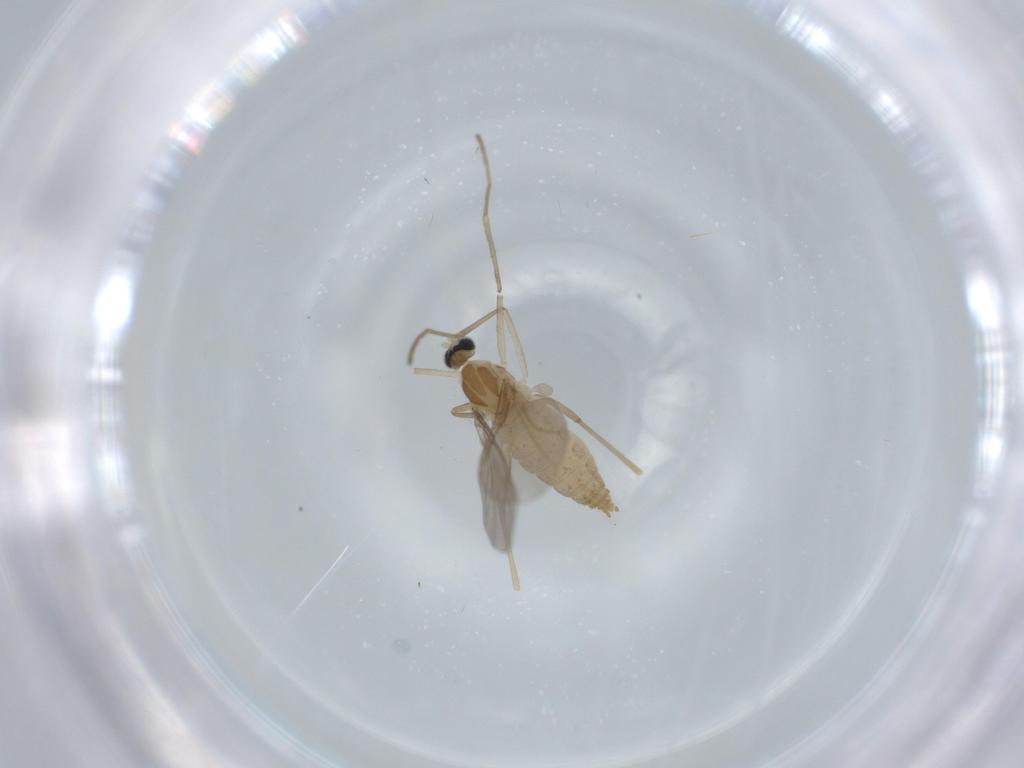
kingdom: Animalia
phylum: Arthropoda
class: Insecta
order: Diptera
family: Cecidomyiidae
